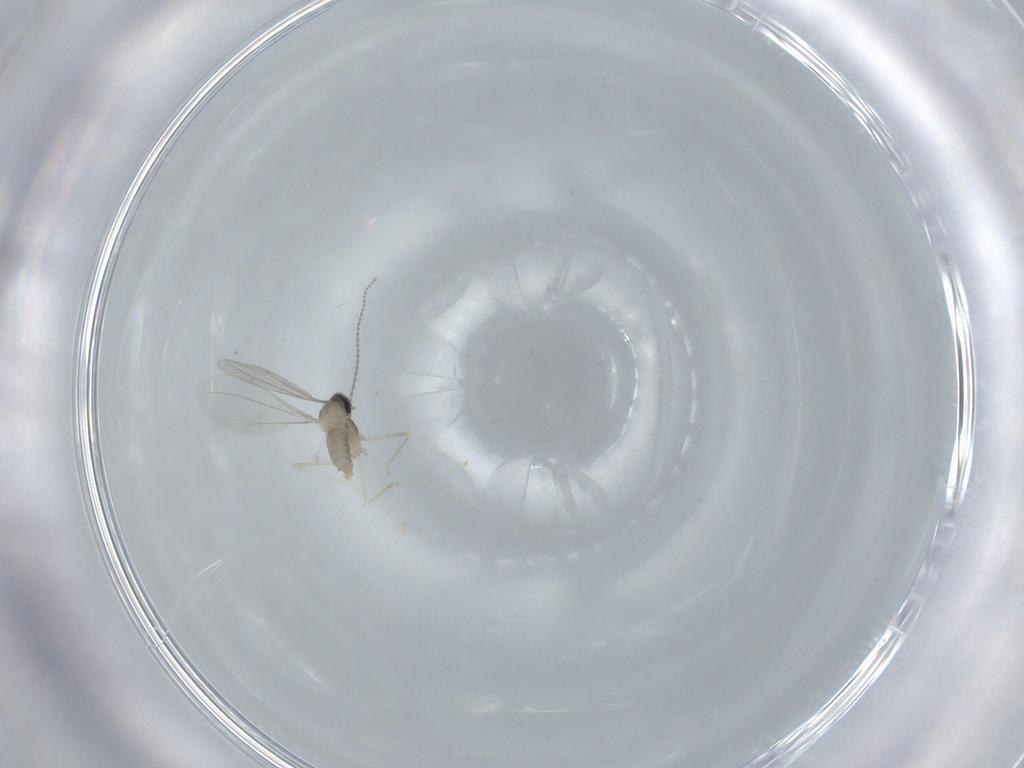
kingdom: Animalia
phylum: Arthropoda
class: Insecta
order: Diptera
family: Cecidomyiidae
